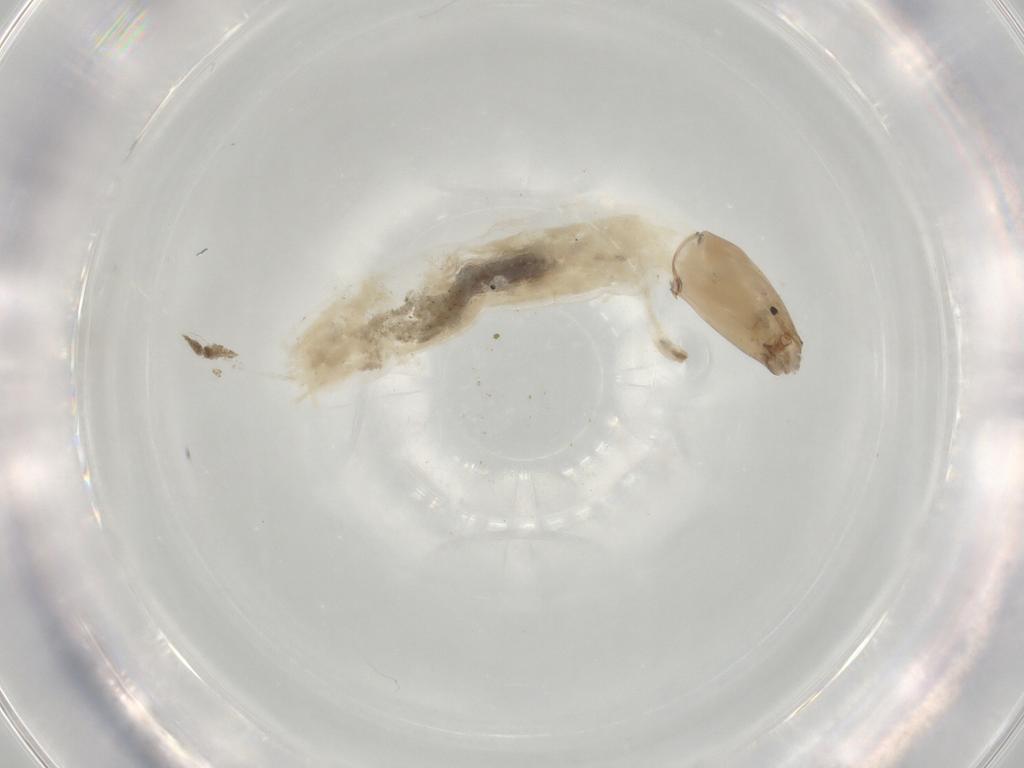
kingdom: Animalia
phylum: Arthropoda
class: Insecta
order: Diptera
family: Chironomidae
